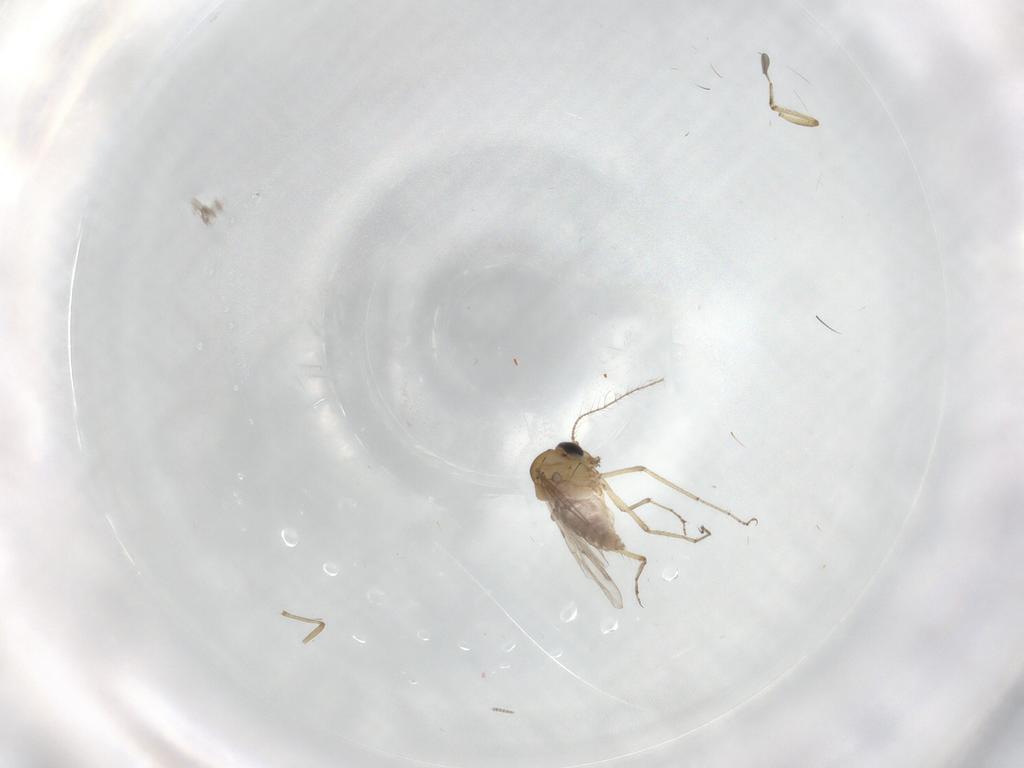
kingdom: Animalia
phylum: Arthropoda
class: Insecta
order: Diptera
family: Sciaridae
